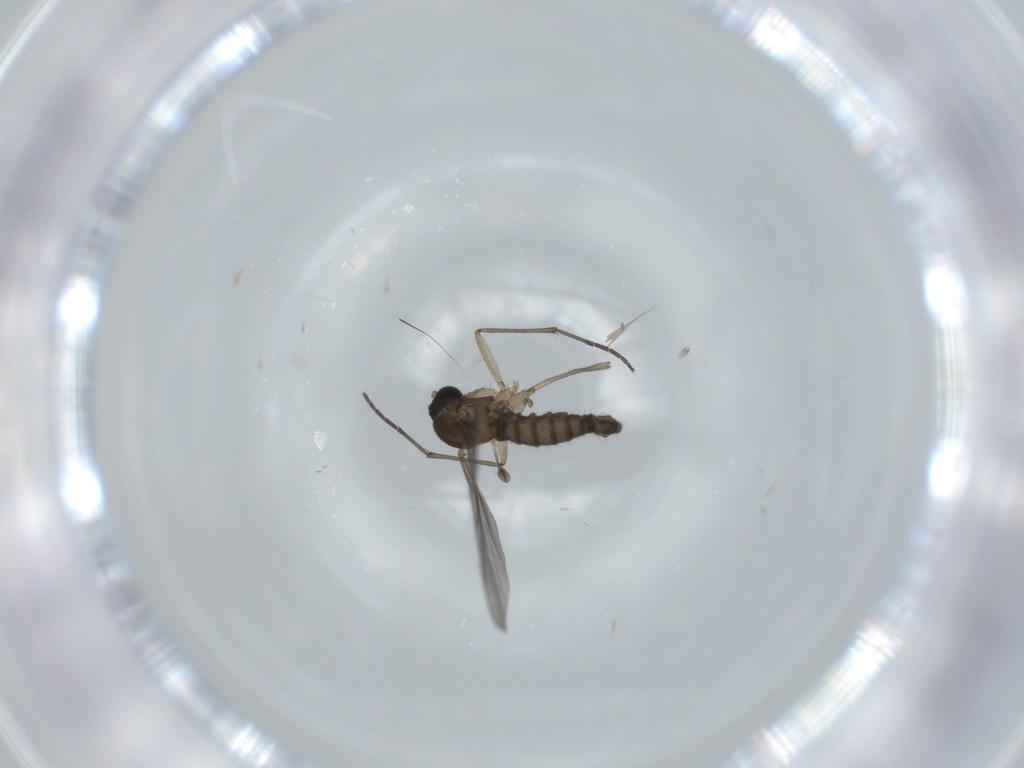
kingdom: Animalia
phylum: Arthropoda
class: Insecta
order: Diptera
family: Sciaridae
